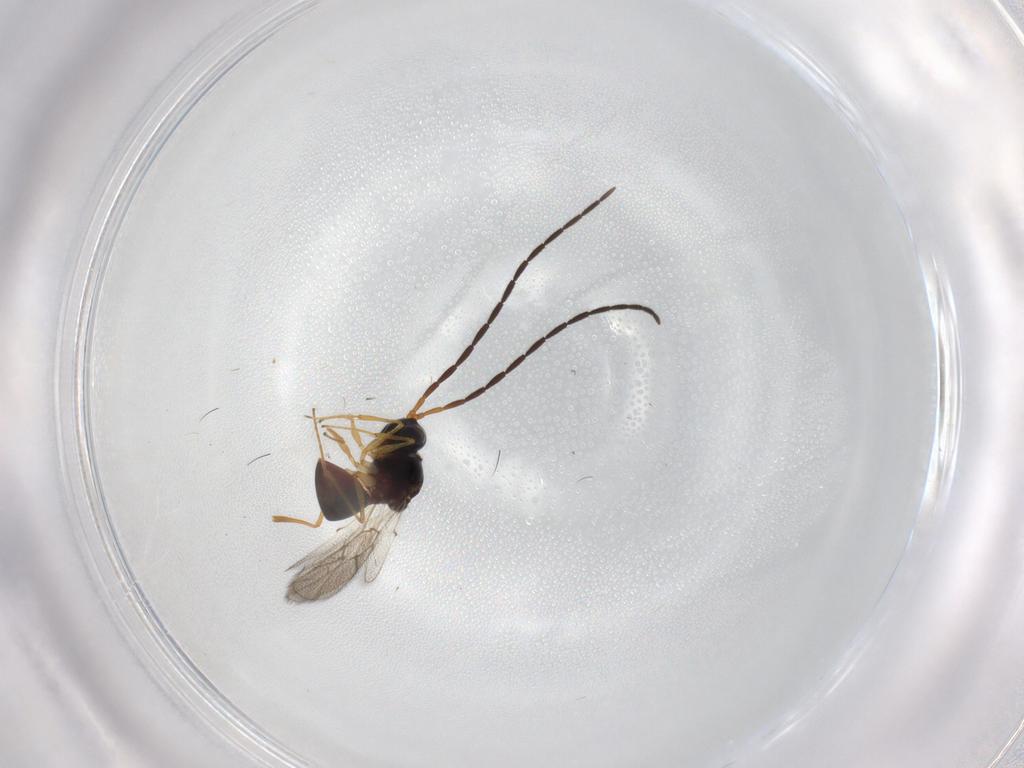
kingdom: Animalia
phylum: Arthropoda
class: Insecta
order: Hymenoptera
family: Figitidae
